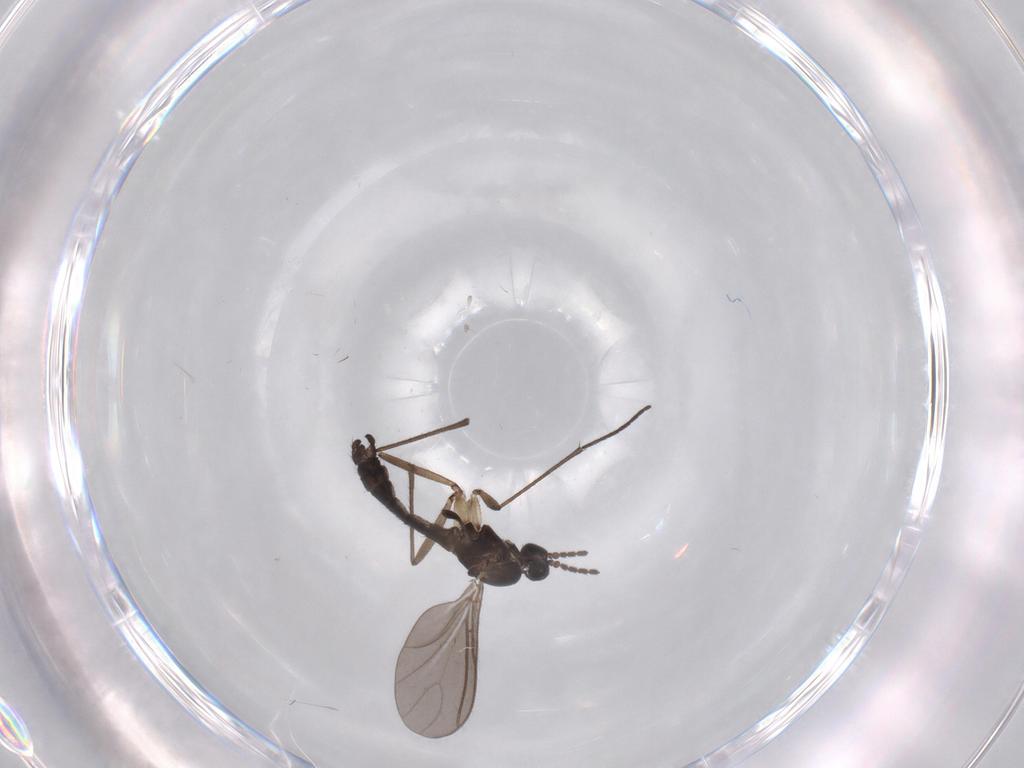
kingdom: Animalia
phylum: Arthropoda
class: Insecta
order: Diptera
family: Sciaridae
